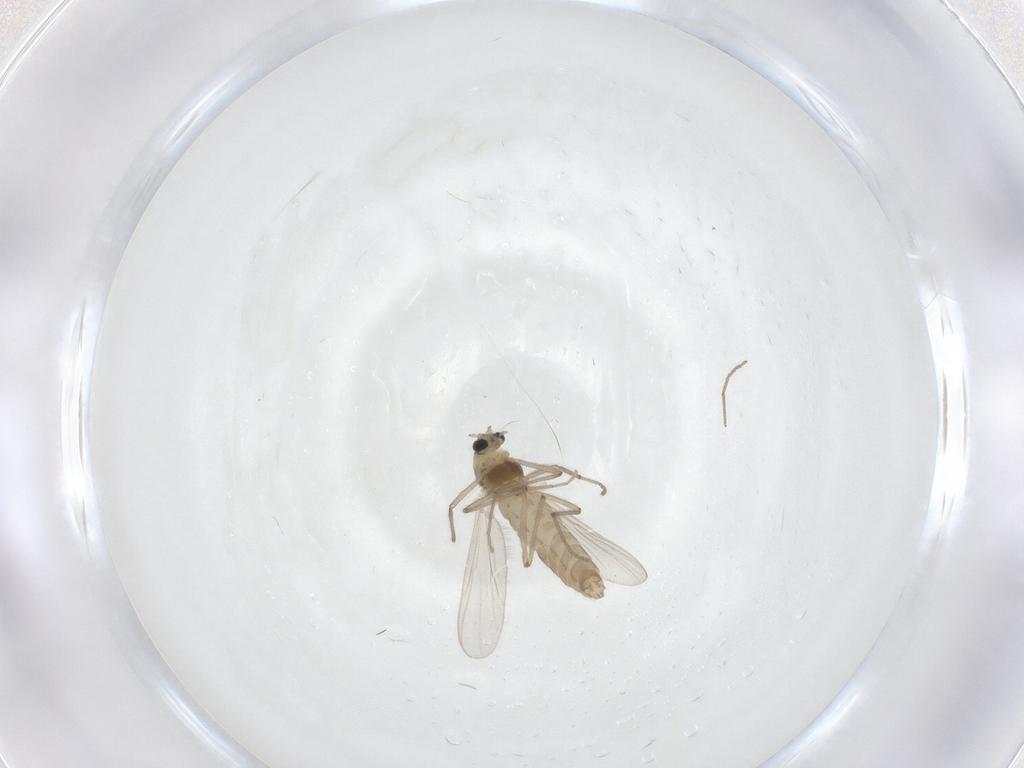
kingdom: Animalia
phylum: Arthropoda
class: Insecta
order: Diptera
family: Chironomidae
